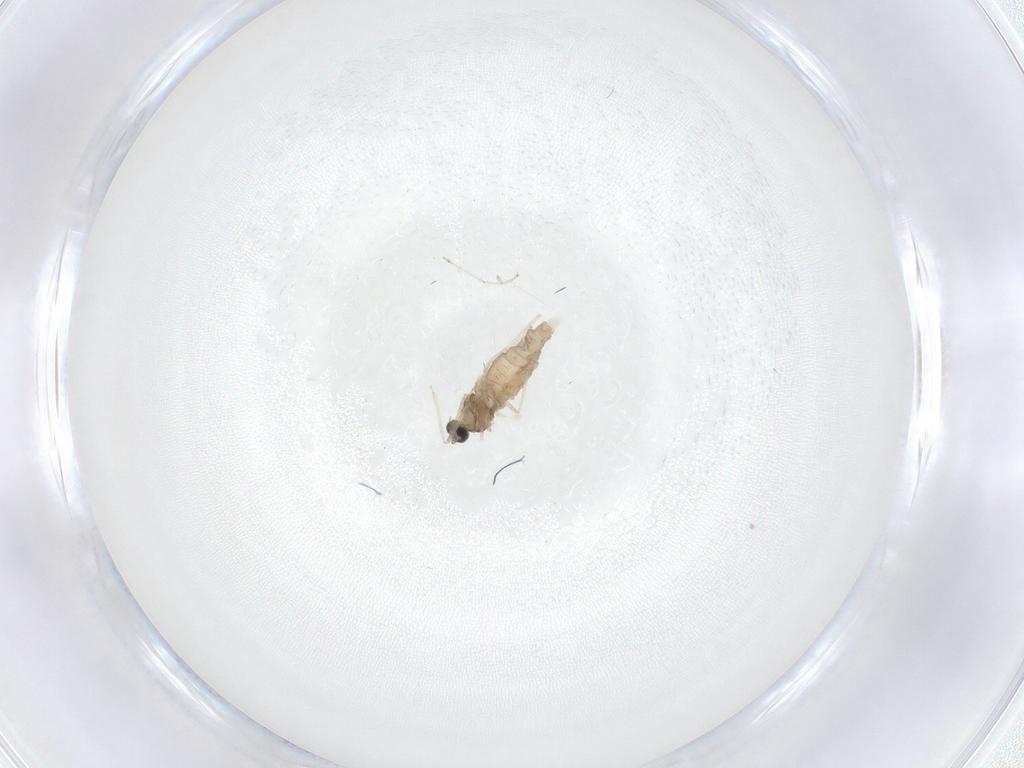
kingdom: Animalia
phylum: Arthropoda
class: Insecta
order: Diptera
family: Cecidomyiidae
